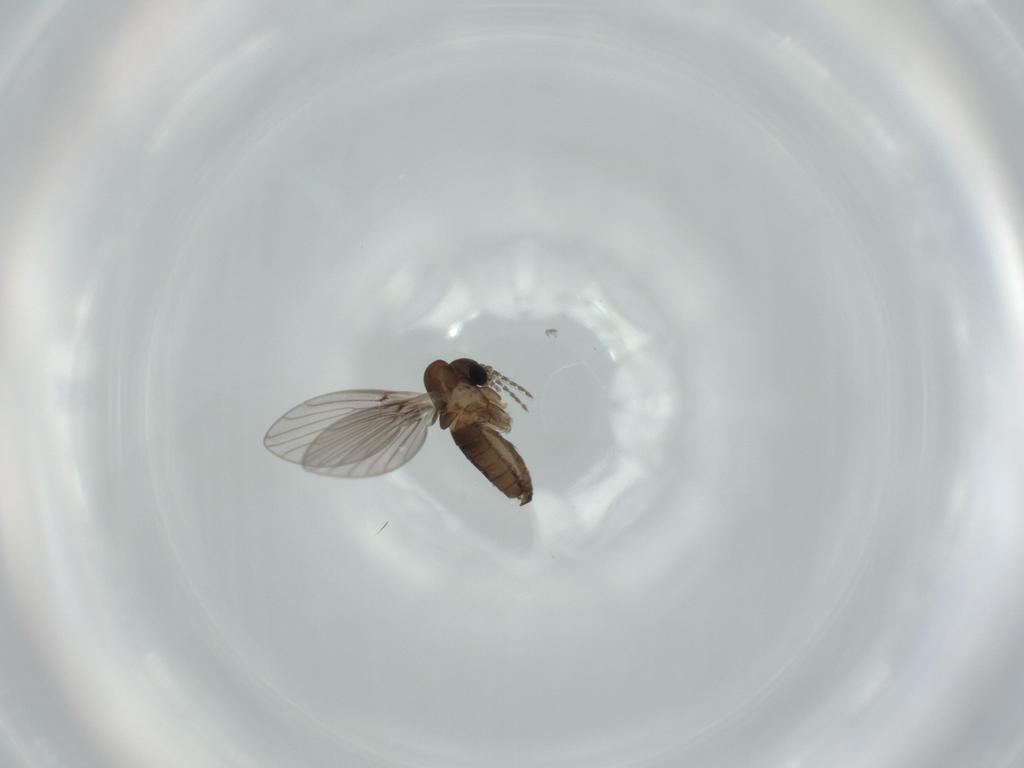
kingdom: Animalia
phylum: Arthropoda
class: Insecta
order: Diptera
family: Psychodidae
